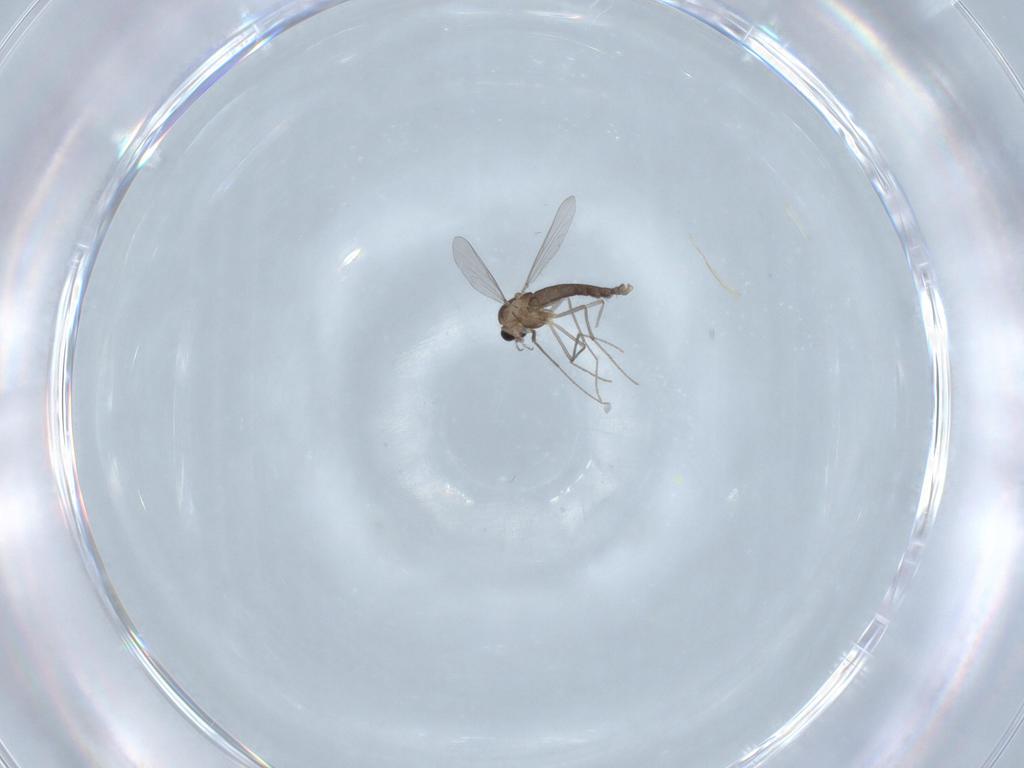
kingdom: Animalia
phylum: Arthropoda
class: Insecta
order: Diptera
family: Chironomidae
